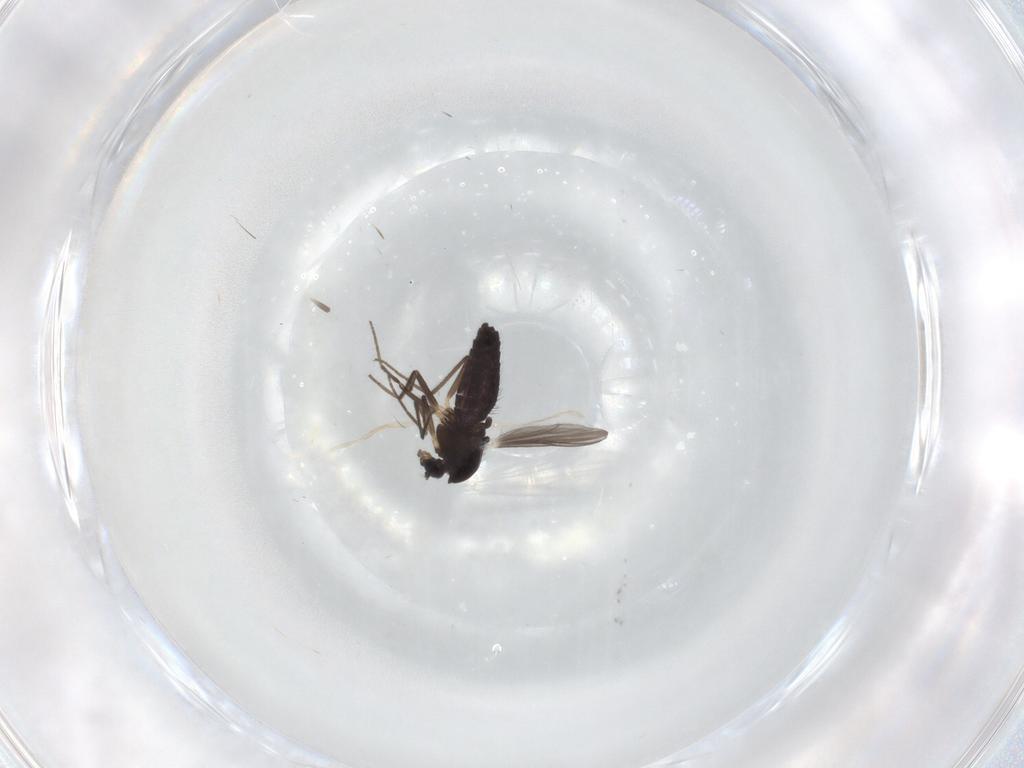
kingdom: Animalia
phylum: Arthropoda
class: Insecta
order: Diptera
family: Chironomidae
